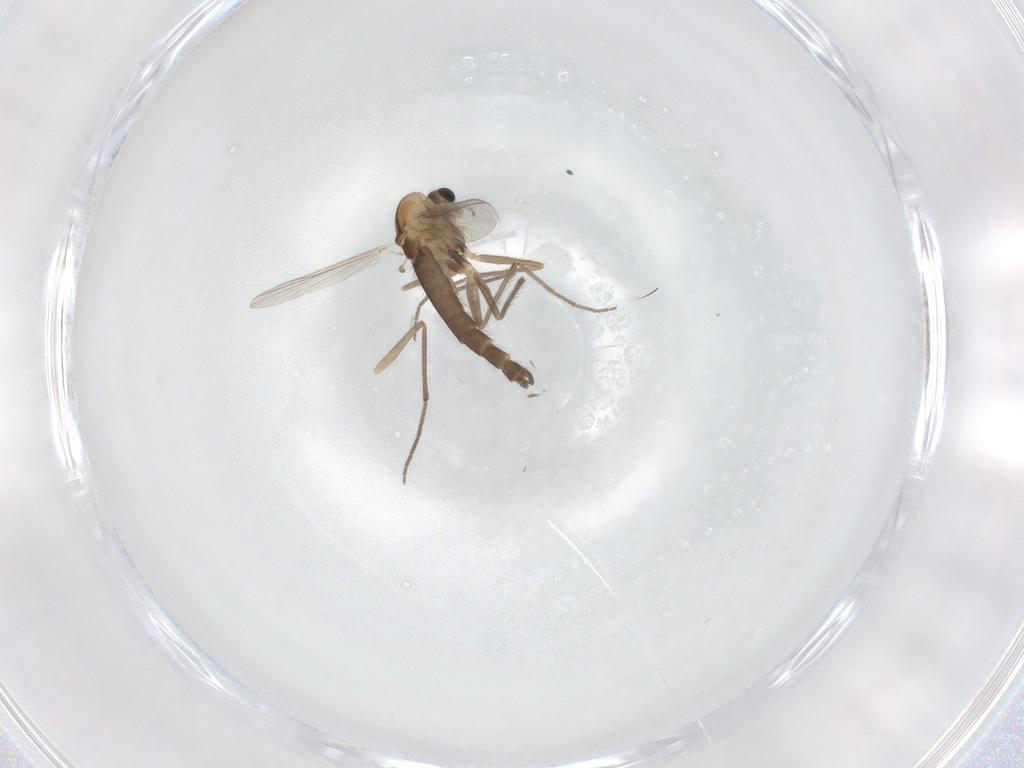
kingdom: Animalia
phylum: Arthropoda
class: Insecta
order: Diptera
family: Chironomidae
